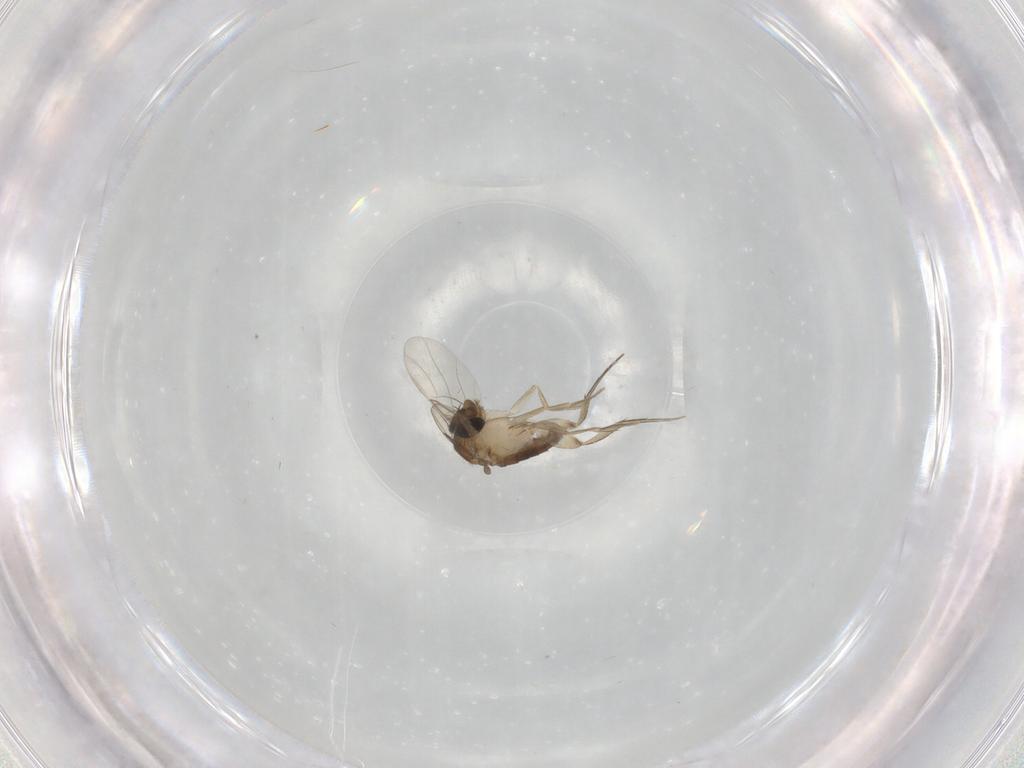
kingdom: Animalia
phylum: Arthropoda
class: Insecta
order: Diptera
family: Phoridae
